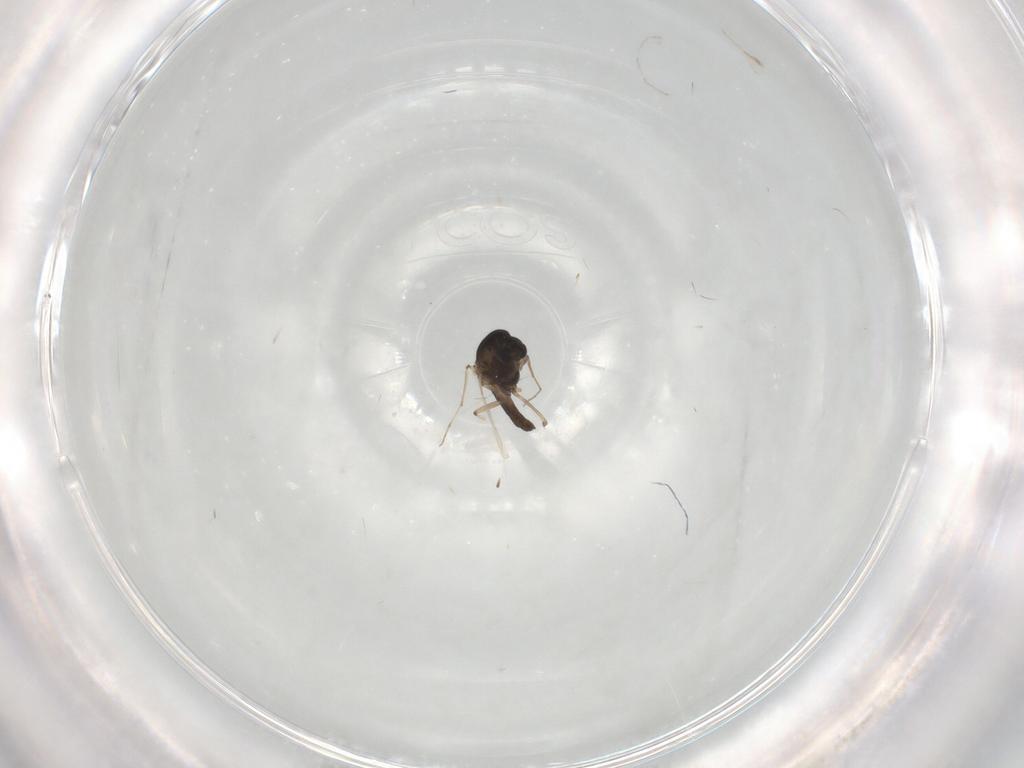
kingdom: Animalia
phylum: Arthropoda
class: Insecta
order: Diptera
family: Chironomidae
